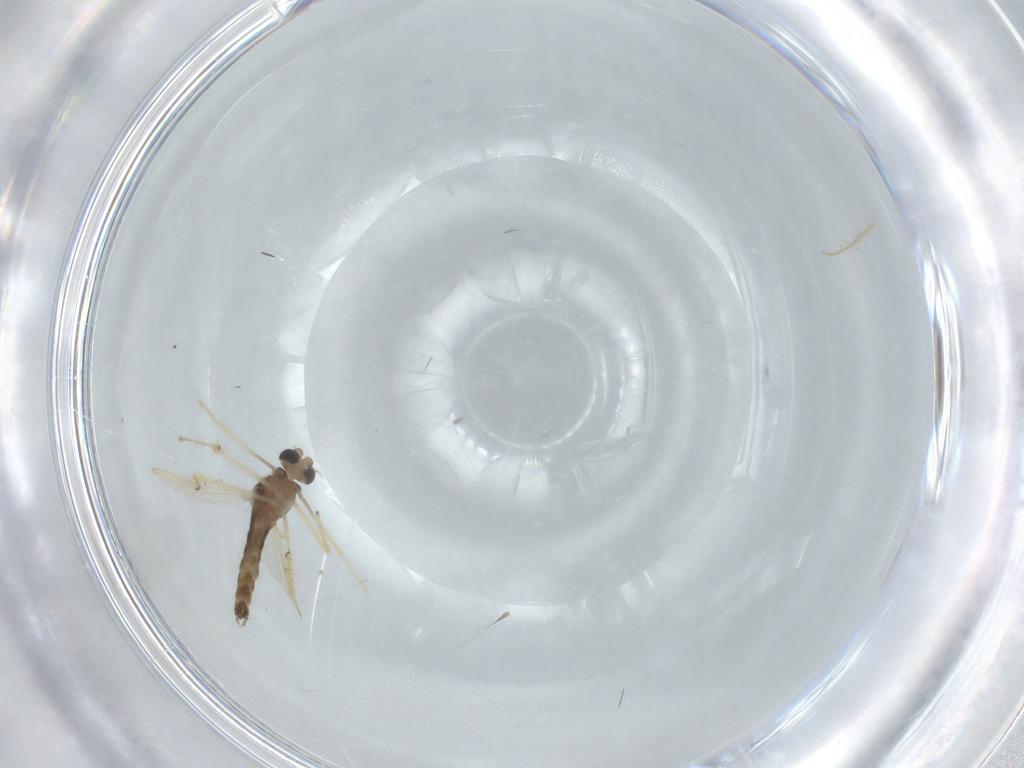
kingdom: Animalia
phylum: Arthropoda
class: Insecta
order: Diptera
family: Chironomidae
